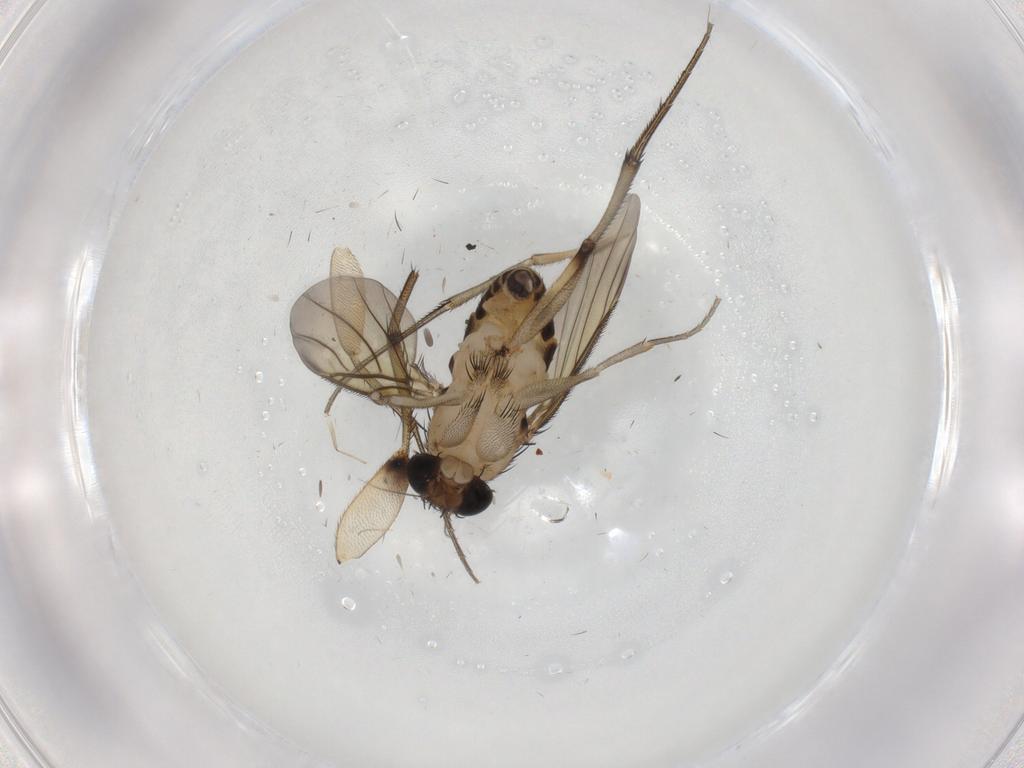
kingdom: Animalia
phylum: Arthropoda
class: Insecta
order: Diptera
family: Phoridae
